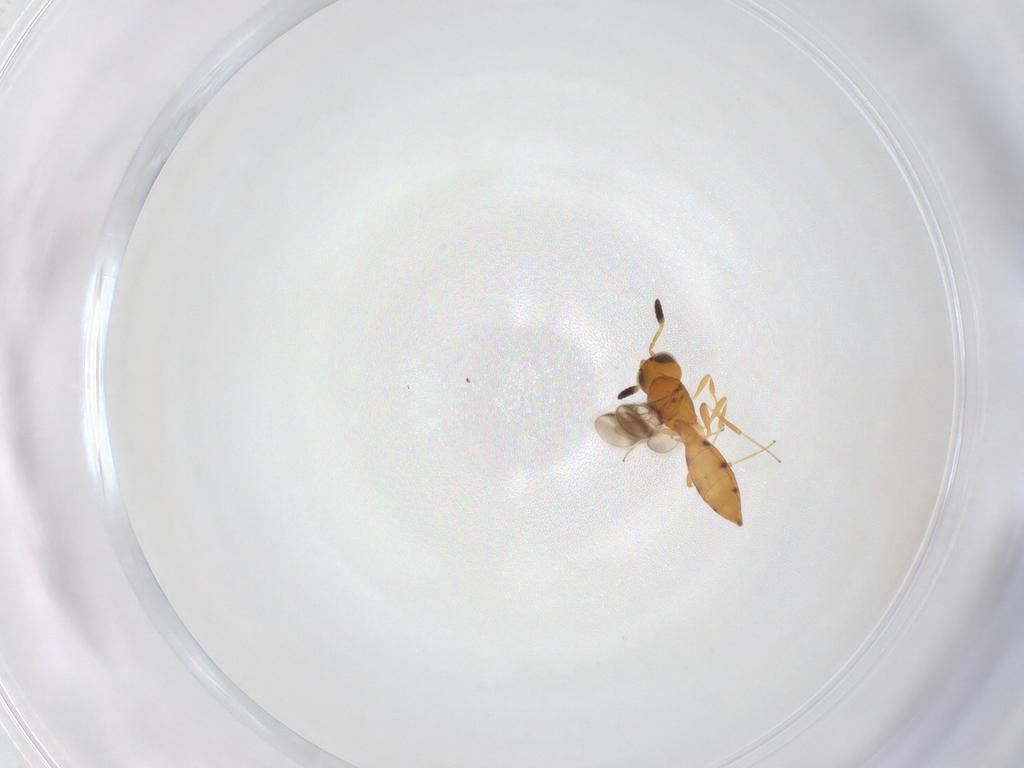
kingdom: Animalia
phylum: Arthropoda
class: Insecta
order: Hymenoptera
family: Scelionidae
